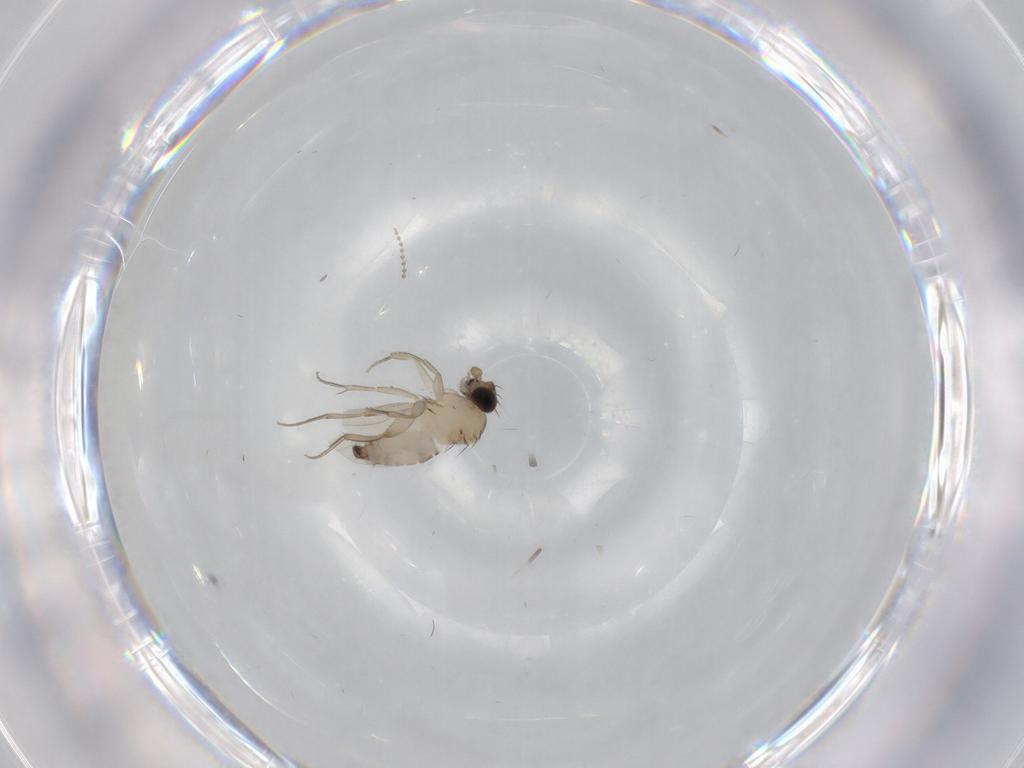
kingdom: Animalia
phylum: Arthropoda
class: Insecta
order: Diptera
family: Phoridae
